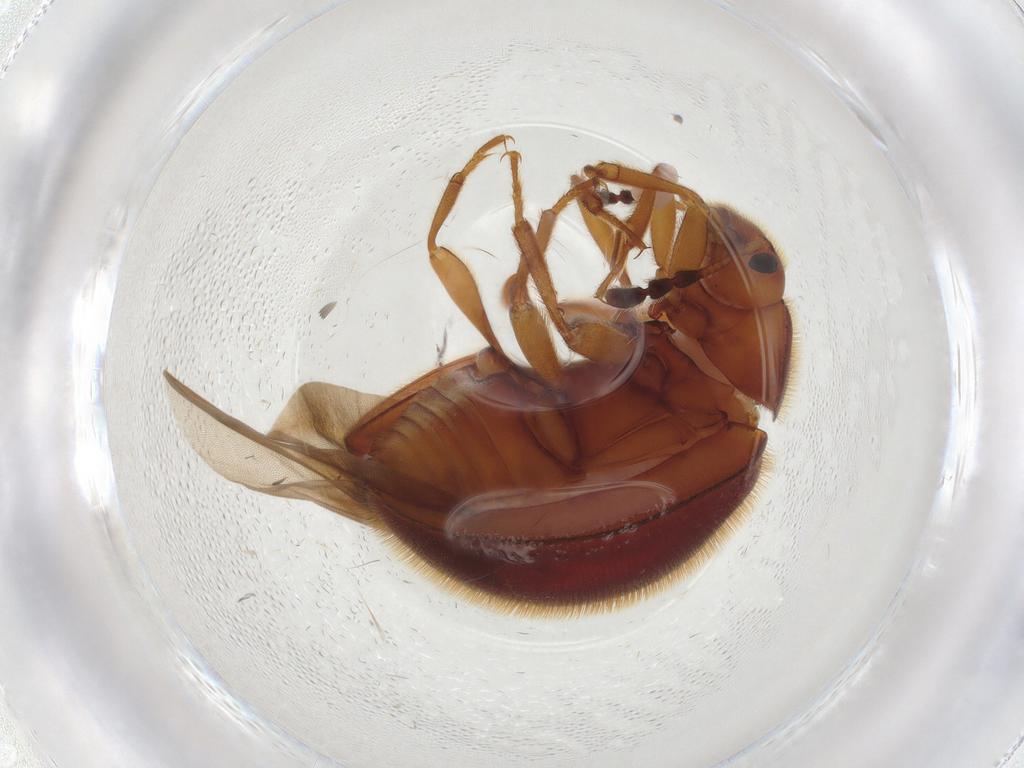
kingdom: Animalia
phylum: Arthropoda
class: Insecta
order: Coleoptera
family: Anamorphidae
